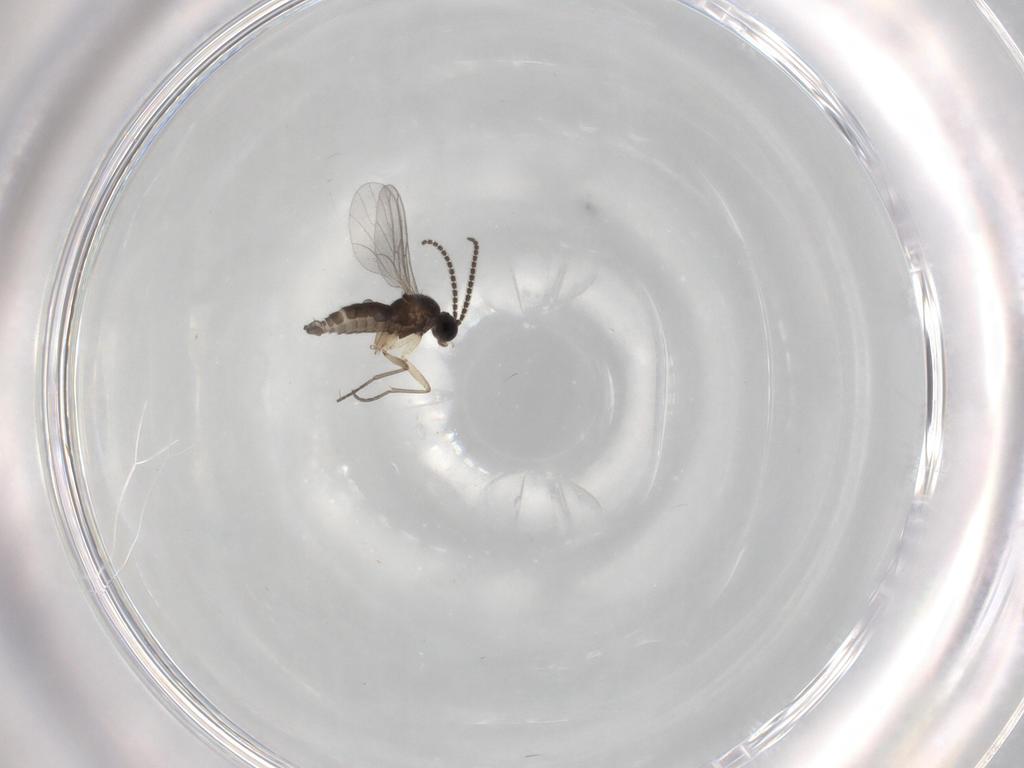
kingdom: Animalia
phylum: Arthropoda
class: Insecta
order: Diptera
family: Sciaridae
